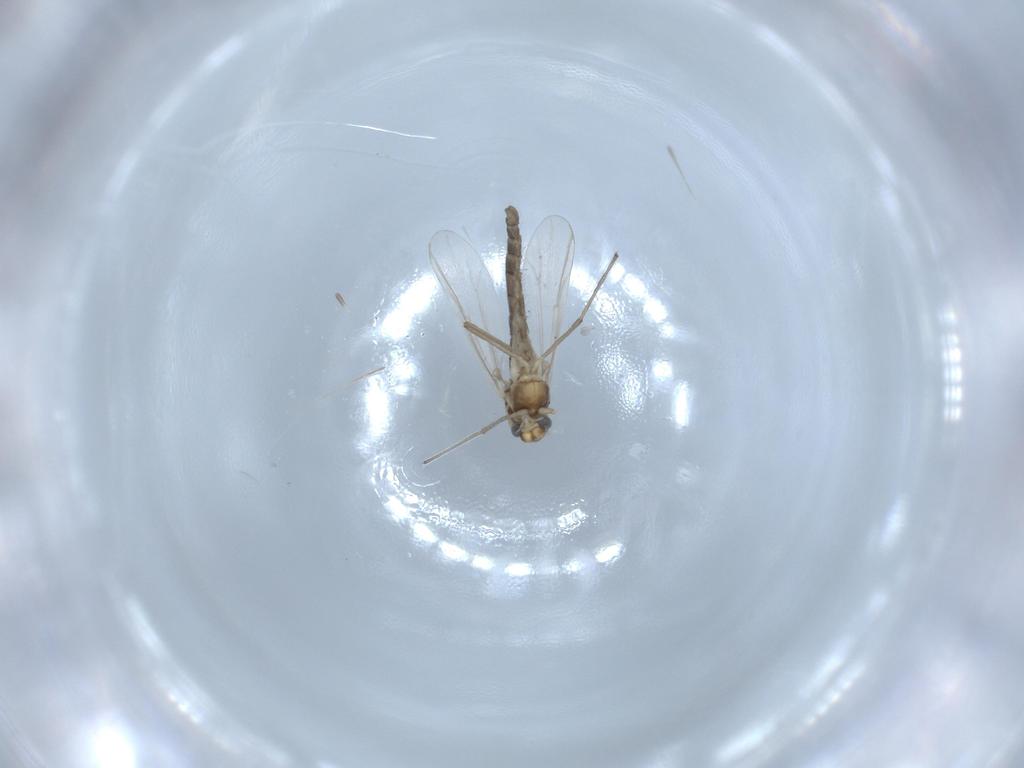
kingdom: Animalia
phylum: Arthropoda
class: Insecta
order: Diptera
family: Chironomidae
